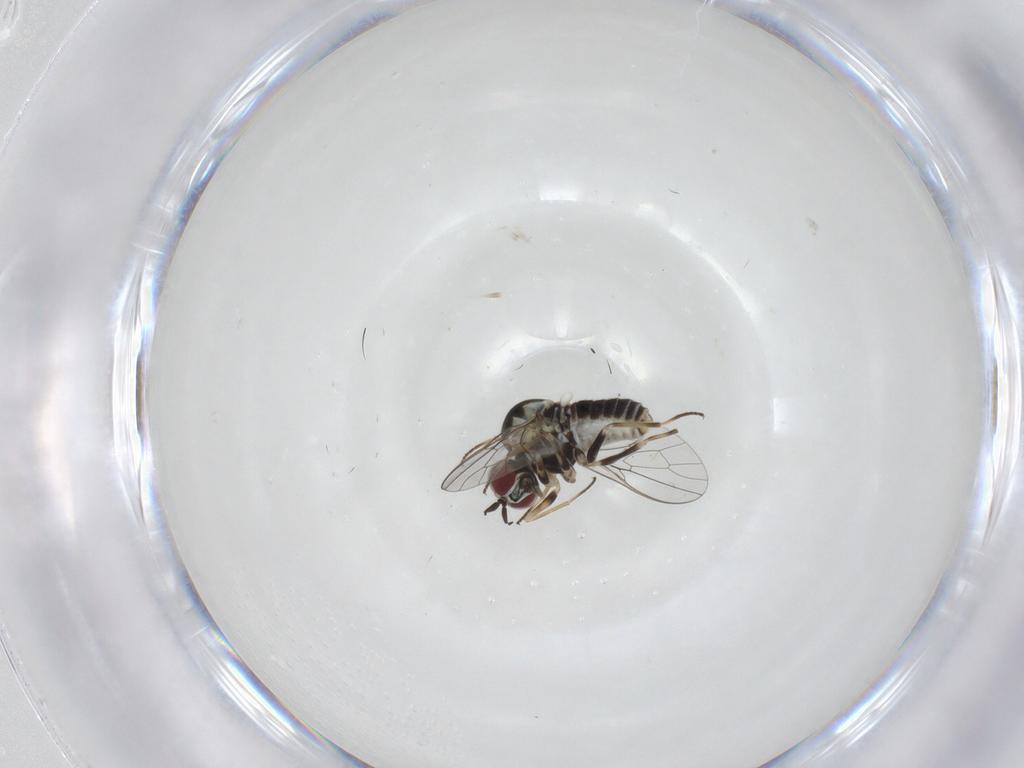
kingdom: Animalia
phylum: Arthropoda
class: Insecta
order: Diptera
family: Mythicomyiidae
